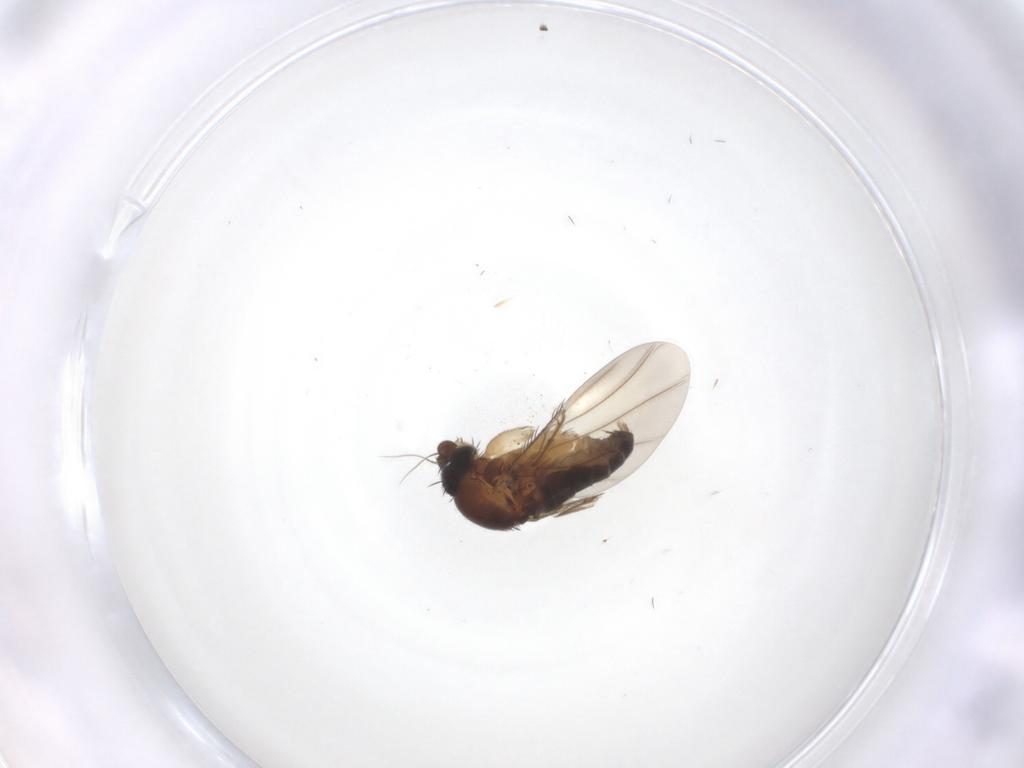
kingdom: Animalia
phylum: Arthropoda
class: Insecta
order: Diptera
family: Phoridae
